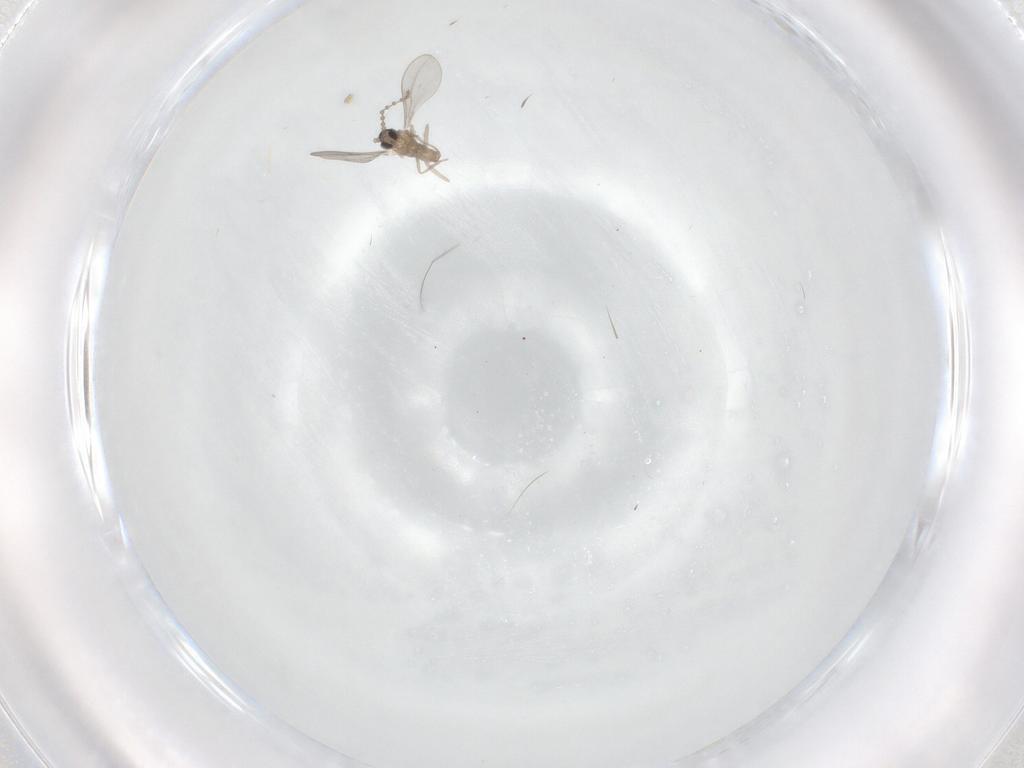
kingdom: Animalia
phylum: Arthropoda
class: Insecta
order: Diptera
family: Cecidomyiidae
